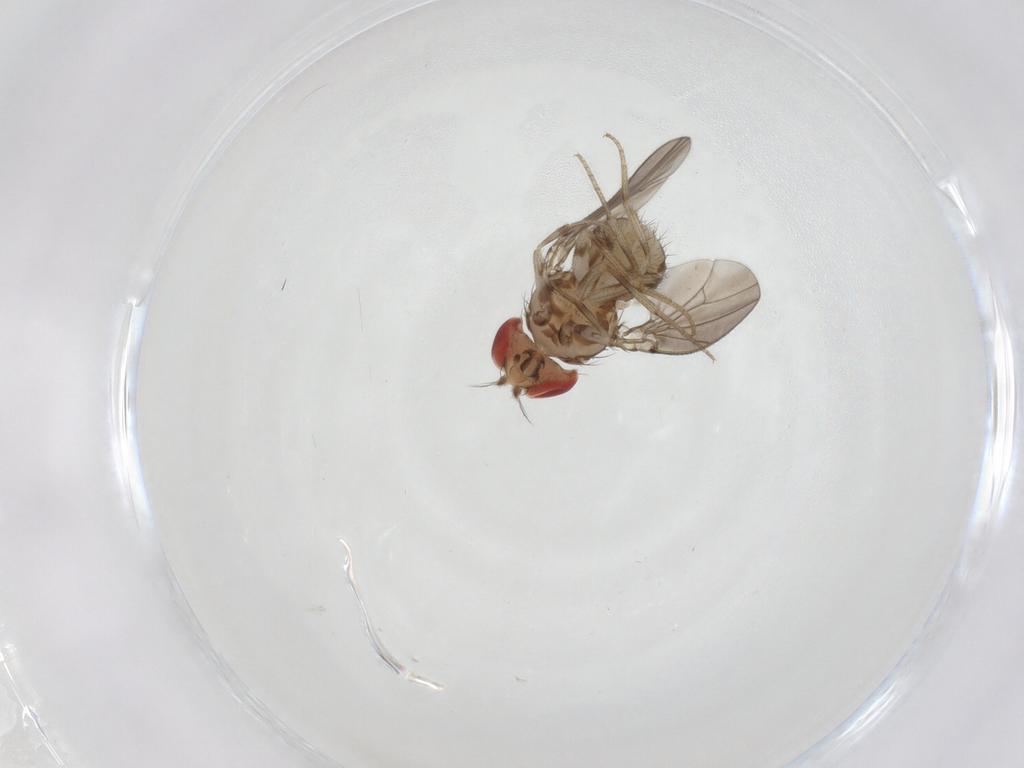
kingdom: Animalia
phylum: Arthropoda
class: Insecta
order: Diptera
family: Drosophilidae
